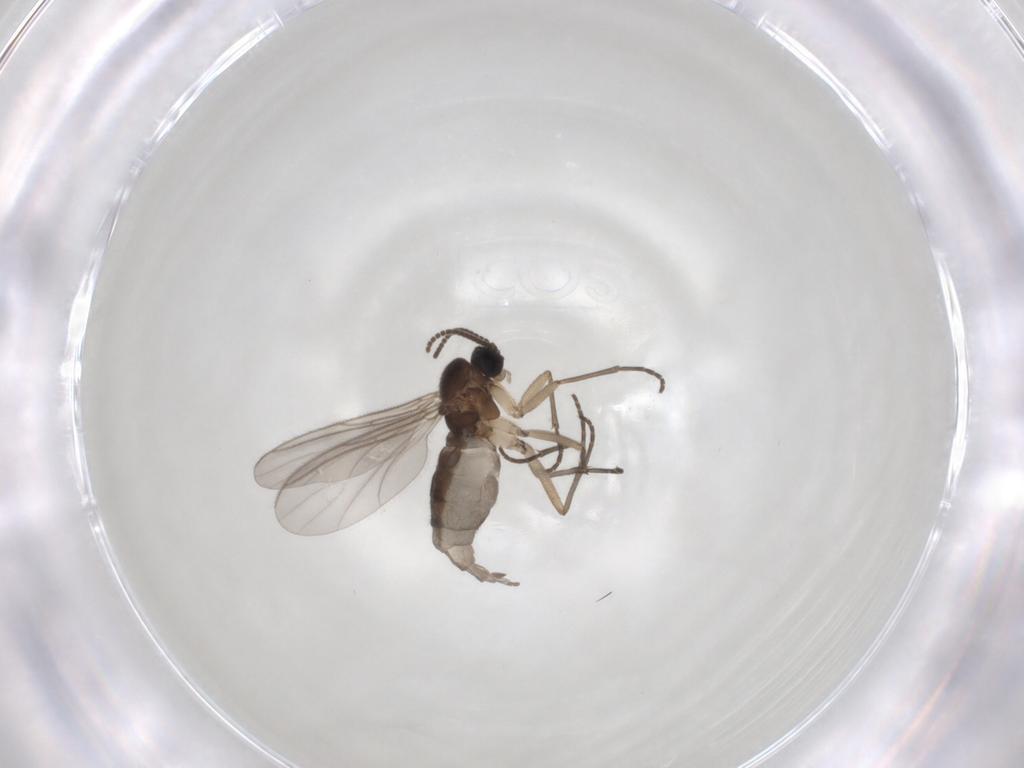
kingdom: Animalia
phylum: Arthropoda
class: Insecta
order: Diptera
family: Sciaridae
